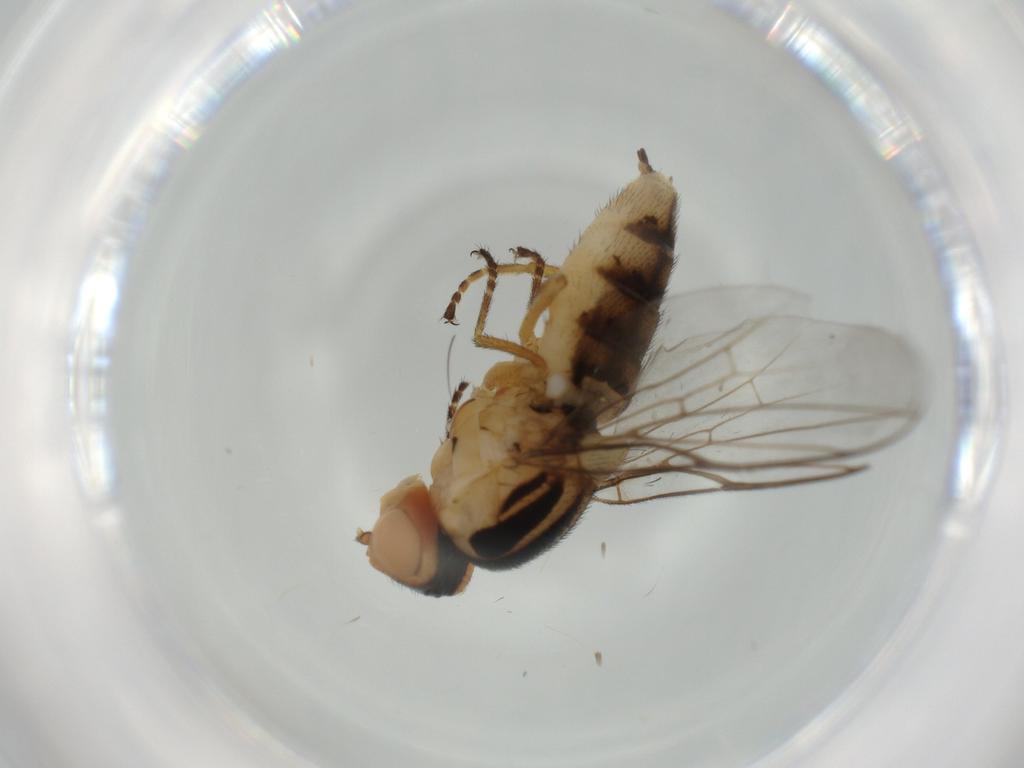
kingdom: Animalia
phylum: Arthropoda
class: Insecta
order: Diptera
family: Chloropidae
